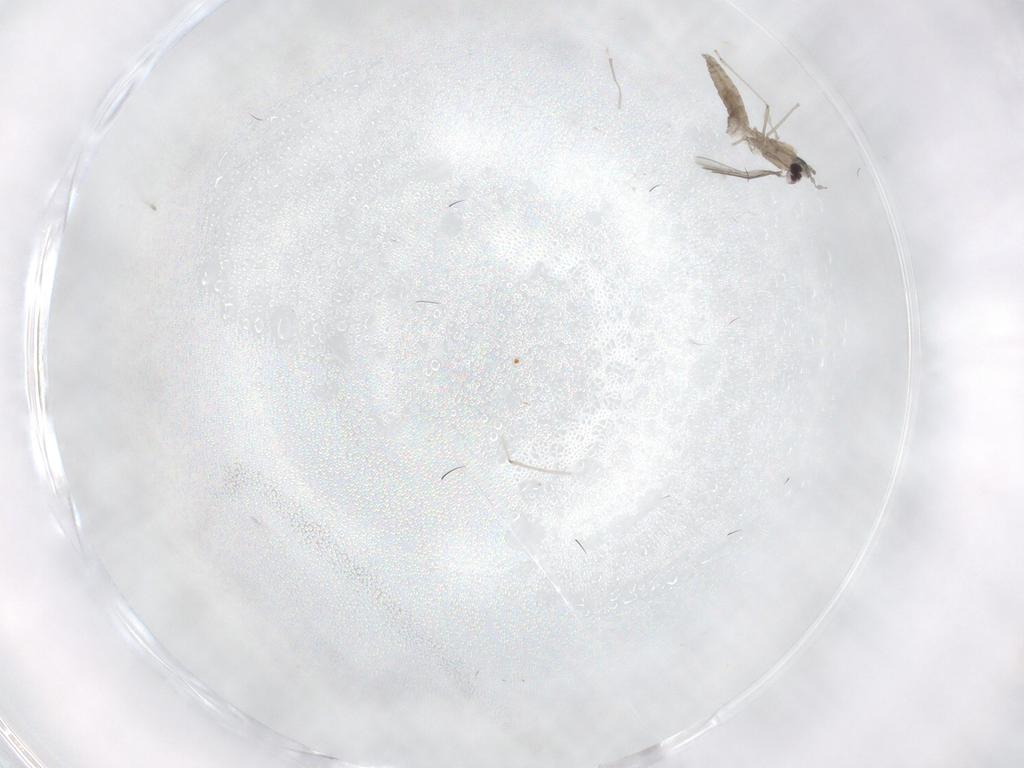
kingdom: Animalia
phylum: Arthropoda
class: Insecta
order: Diptera
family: Cecidomyiidae
